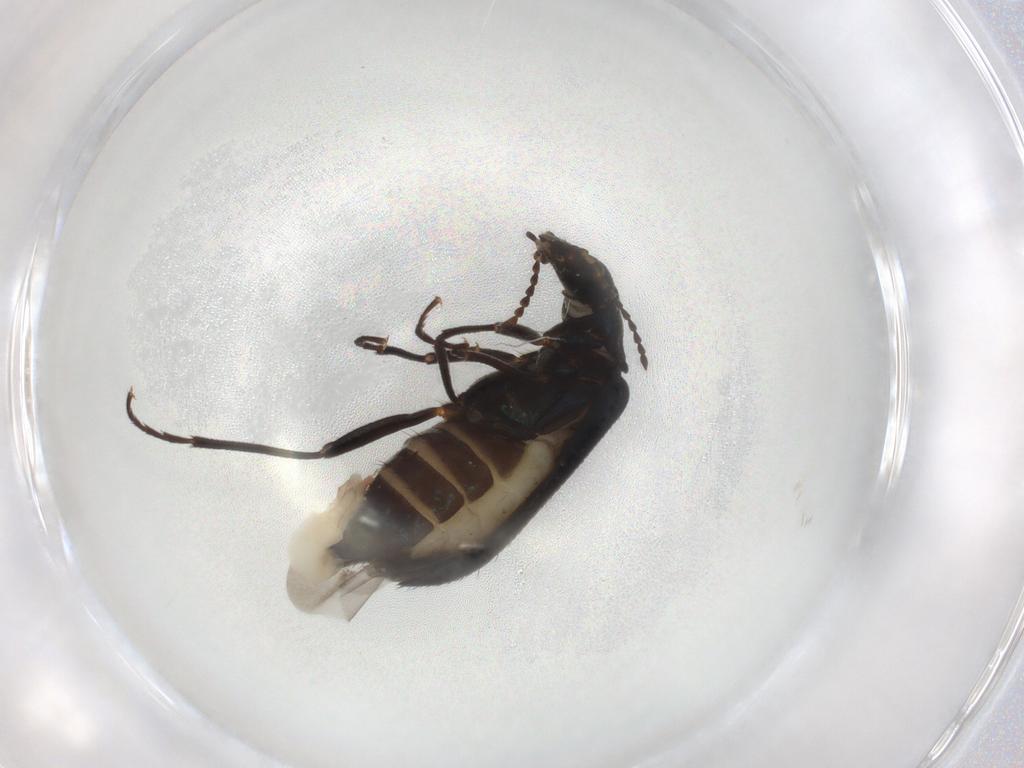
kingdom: Animalia
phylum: Arthropoda
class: Insecta
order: Coleoptera
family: Melyridae
